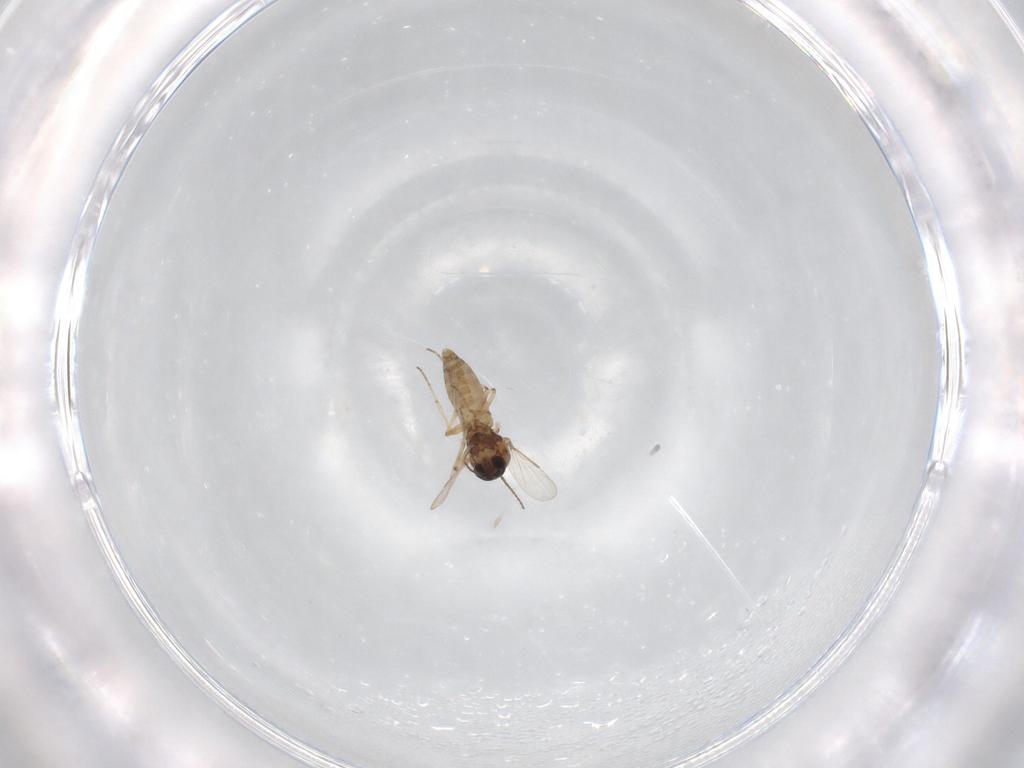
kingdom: Animalia
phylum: Arthropoda
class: Insecta
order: Diptera
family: Ceratopogonidae
